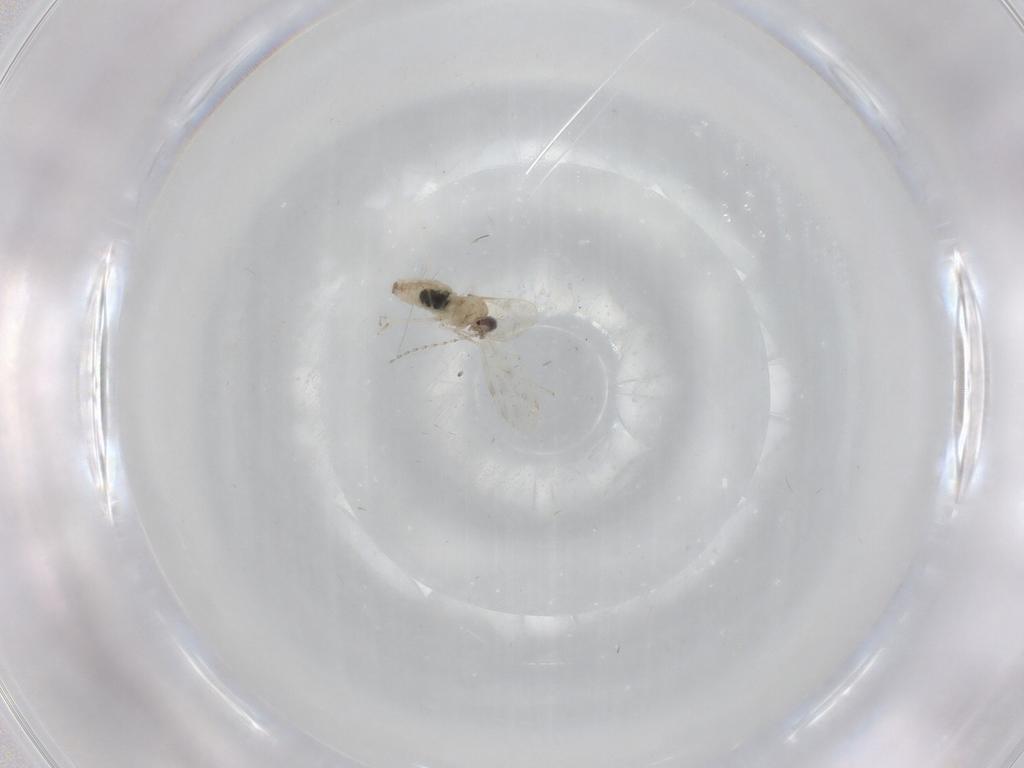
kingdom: Animalia
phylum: Arthropoda
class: Insecta
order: Diptera
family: Cecidomyiidae
